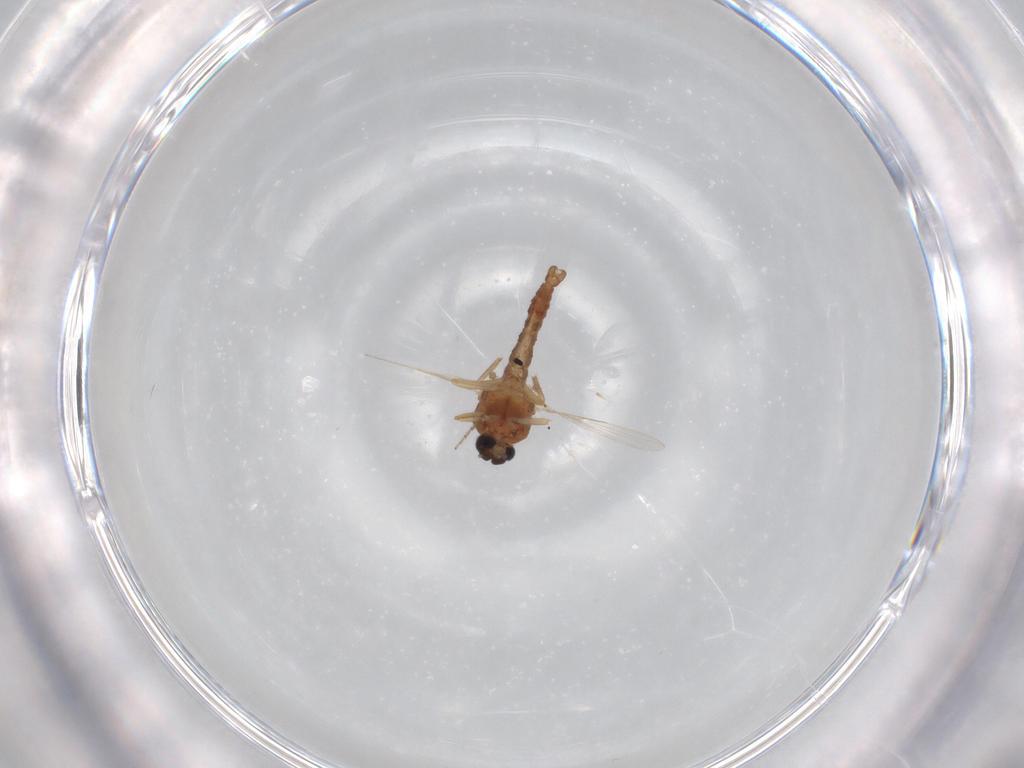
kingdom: Animalia
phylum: Arthropoda
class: Insecta
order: Diptera
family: Ceratopogonidae
